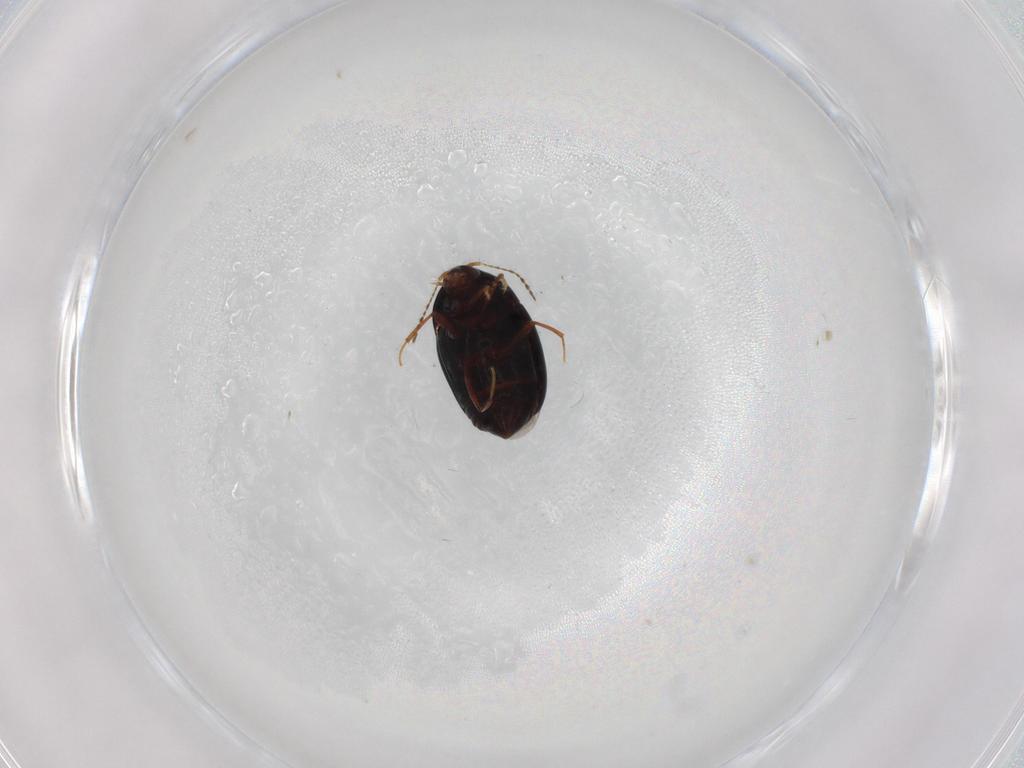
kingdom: Animalia
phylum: Arthropoda
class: Insecta
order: Coleoptera
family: Staphylinidae
